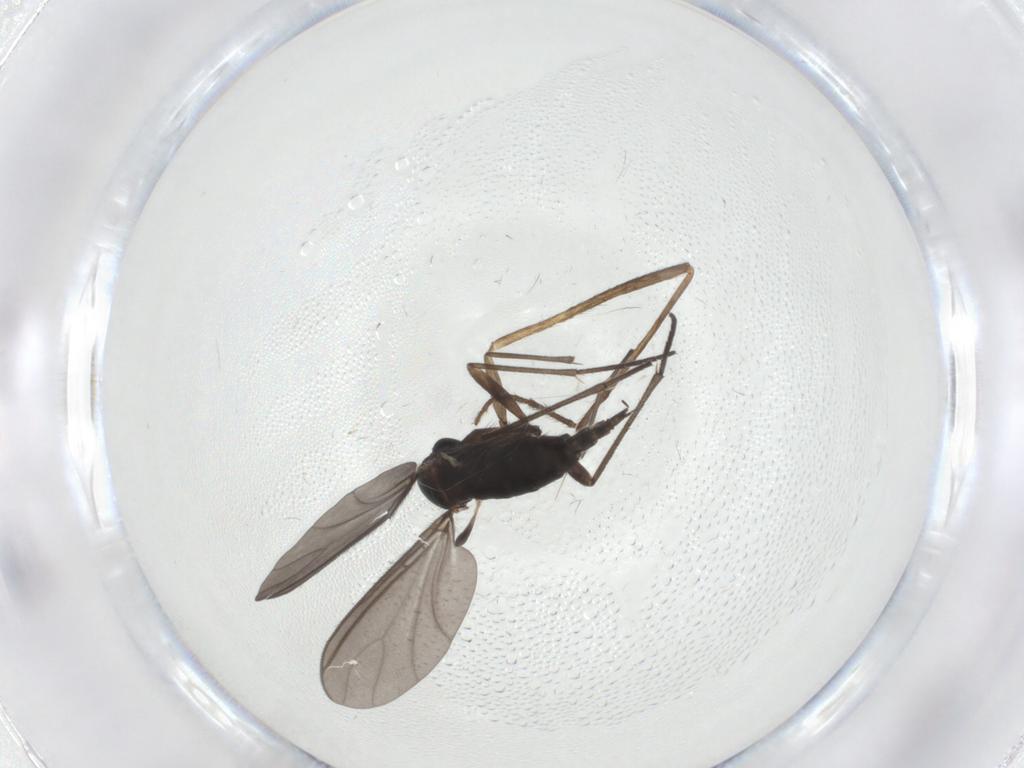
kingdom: Animalia
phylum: Arthropoda
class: Insecta
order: Diptera
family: Sciaridae
